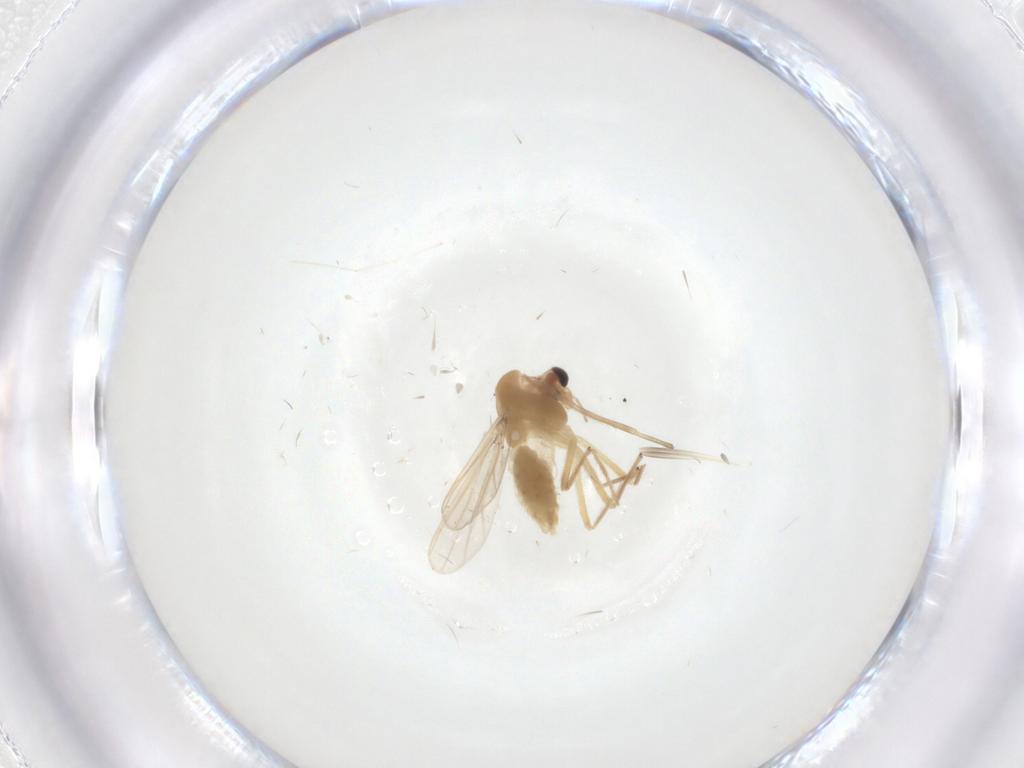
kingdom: Animalia
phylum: Arthropoda
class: Insecta
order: Diptera
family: Chironomidae
